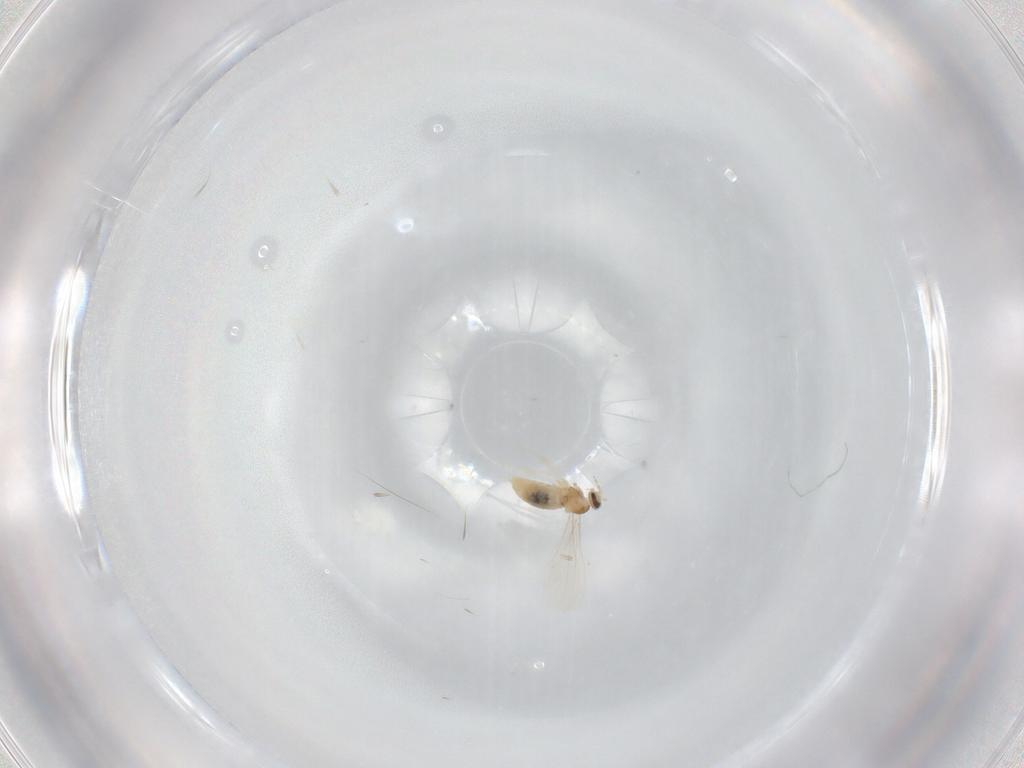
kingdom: Animalia
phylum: Arthropoda
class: Insecta
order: Diptera
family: Cecidomyiidae
